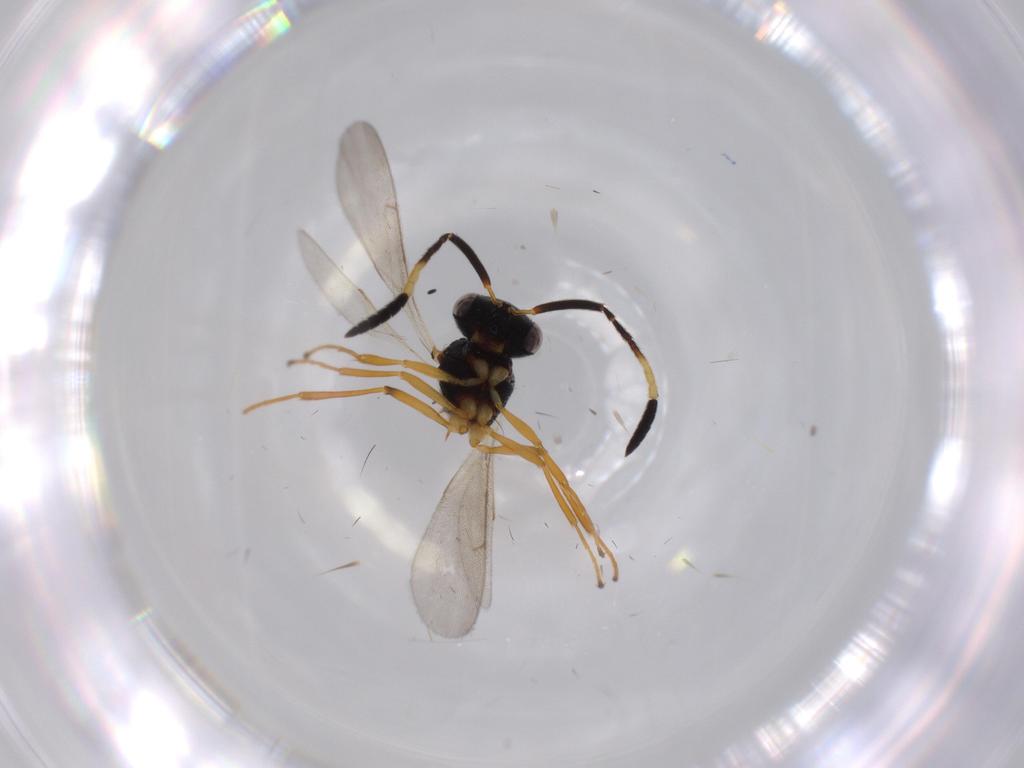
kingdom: Animalia
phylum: Arthropoda
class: Insecta
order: Hymenoptera
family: Scelionidae
